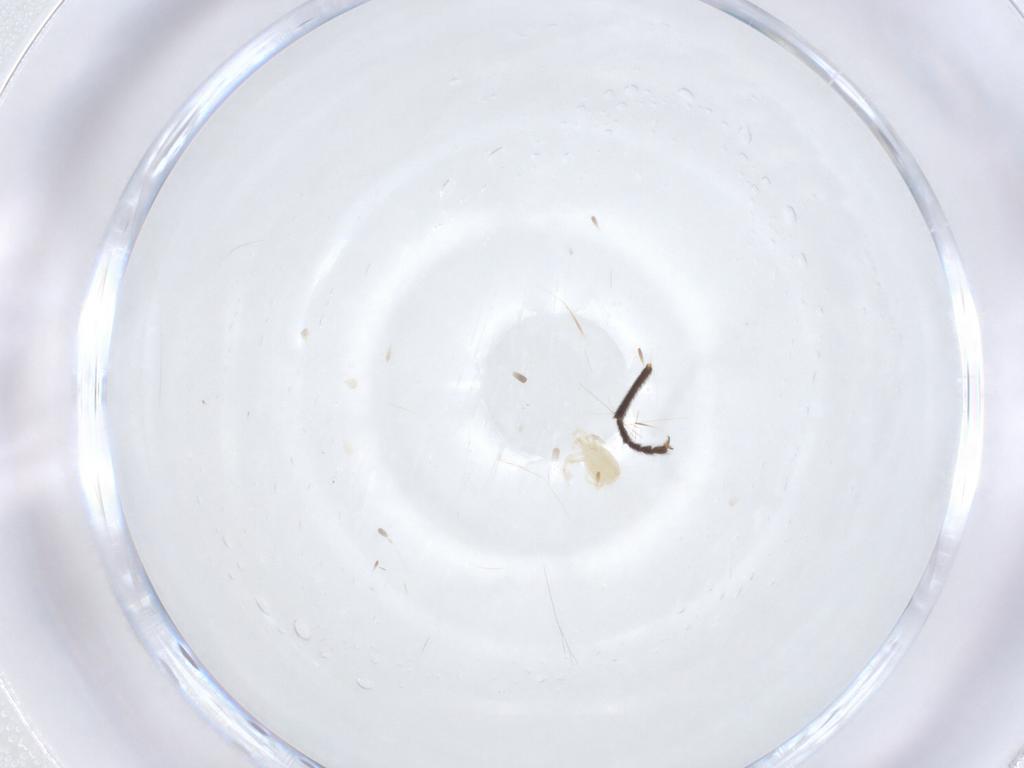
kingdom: Animalia
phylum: Arthropoda
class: Insecta
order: Diptera
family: Micropezidae
